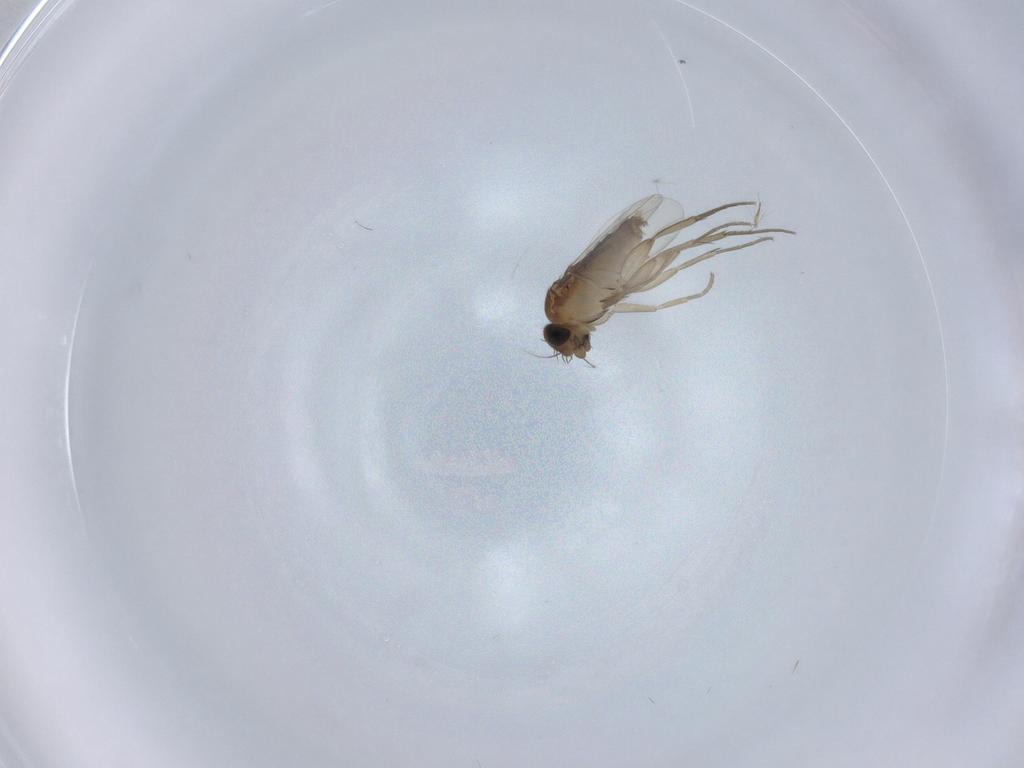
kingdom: Animalia
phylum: Arthropoda
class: Insecta
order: Diptera
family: Phoridae
